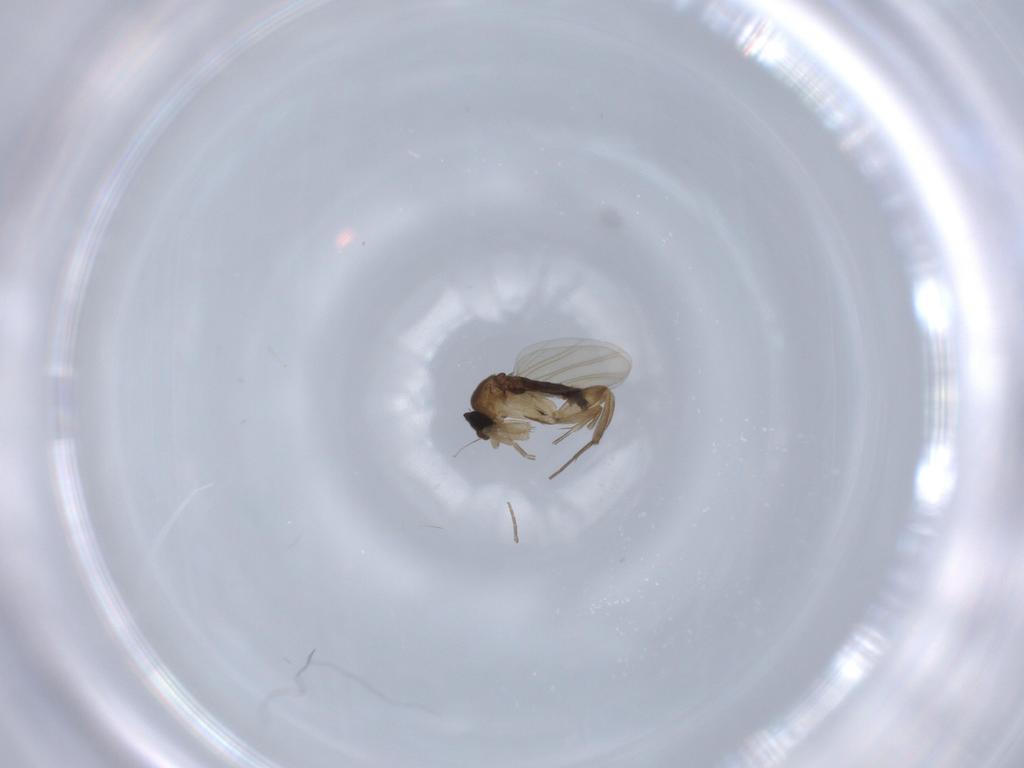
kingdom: Animalia
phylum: Arthropoda
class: Insecta
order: Diptera
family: Phoridae
